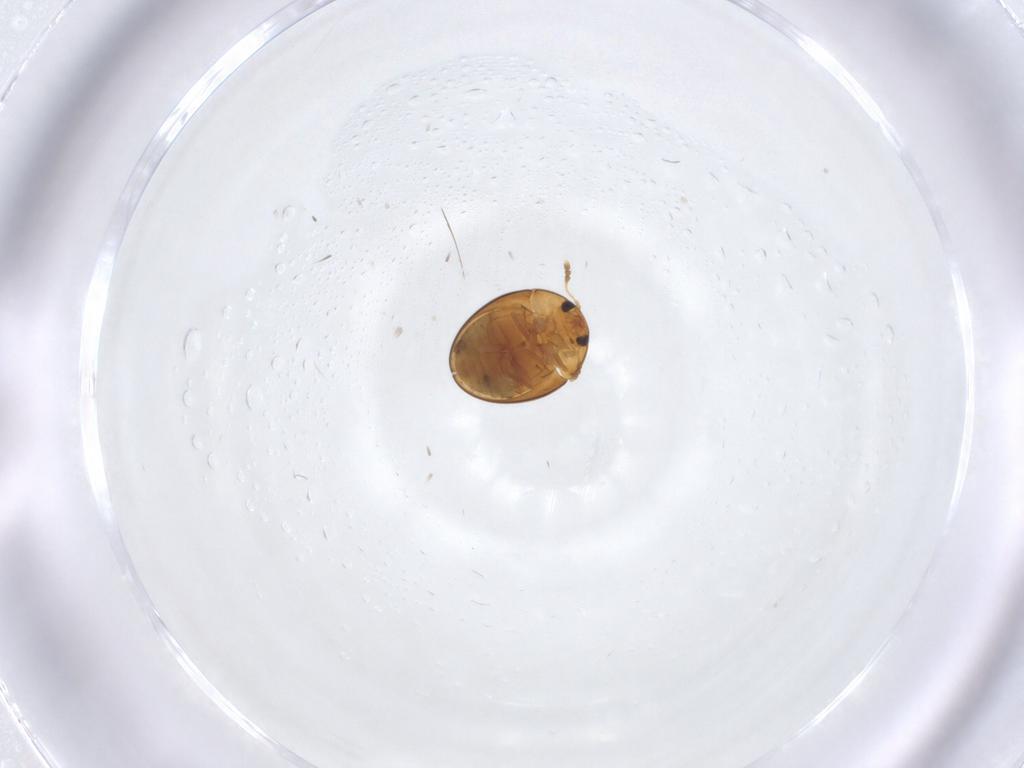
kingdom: Animalia
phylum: Arthropoda
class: Insecta
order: Coleoptera
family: Phalacridae
